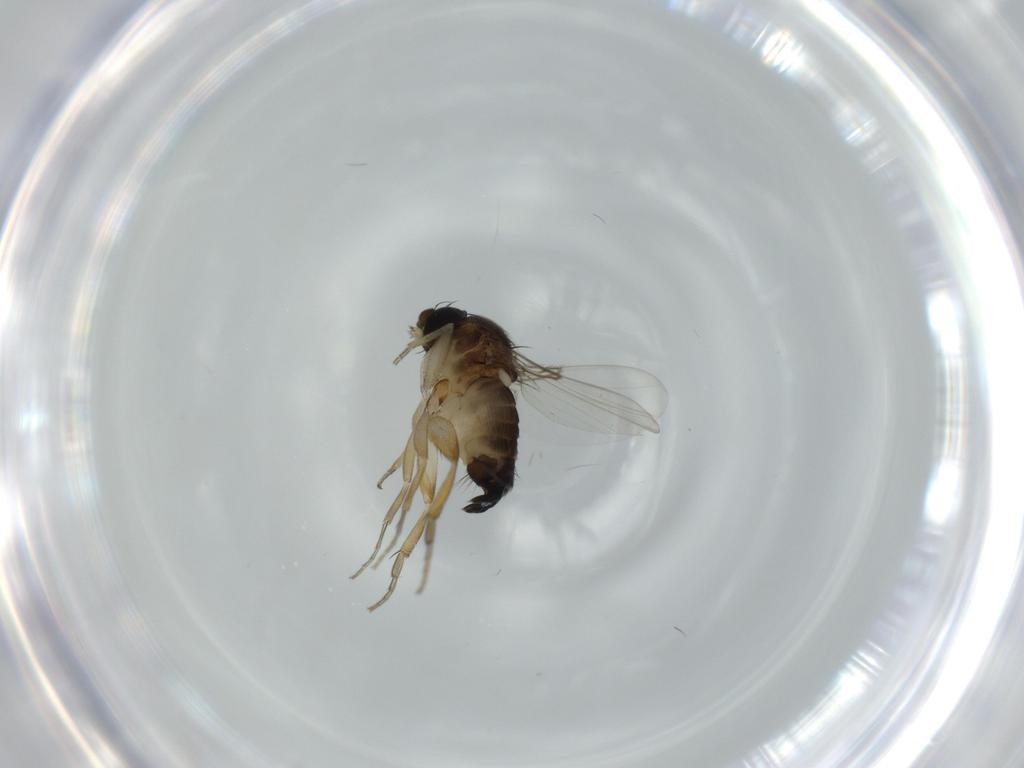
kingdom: Animalia
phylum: Arthropoda
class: Insecta
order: Diptera
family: Phoridae
